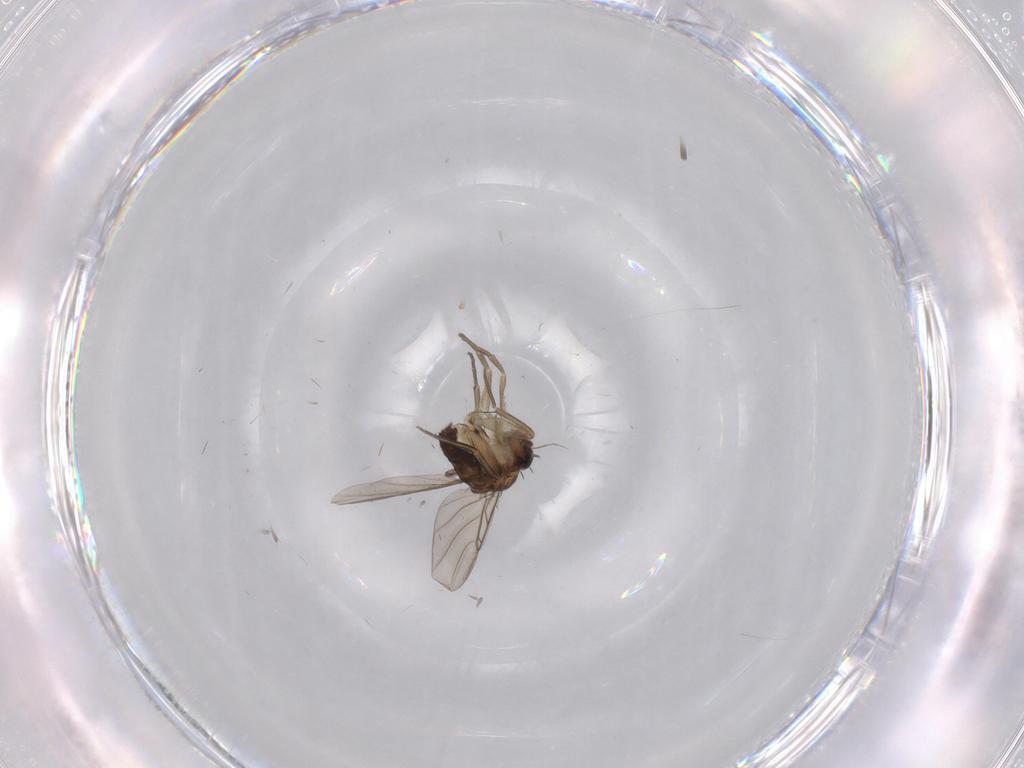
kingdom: Animalia
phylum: Arthropoda
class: Insecta
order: Diptera
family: Phoridae
